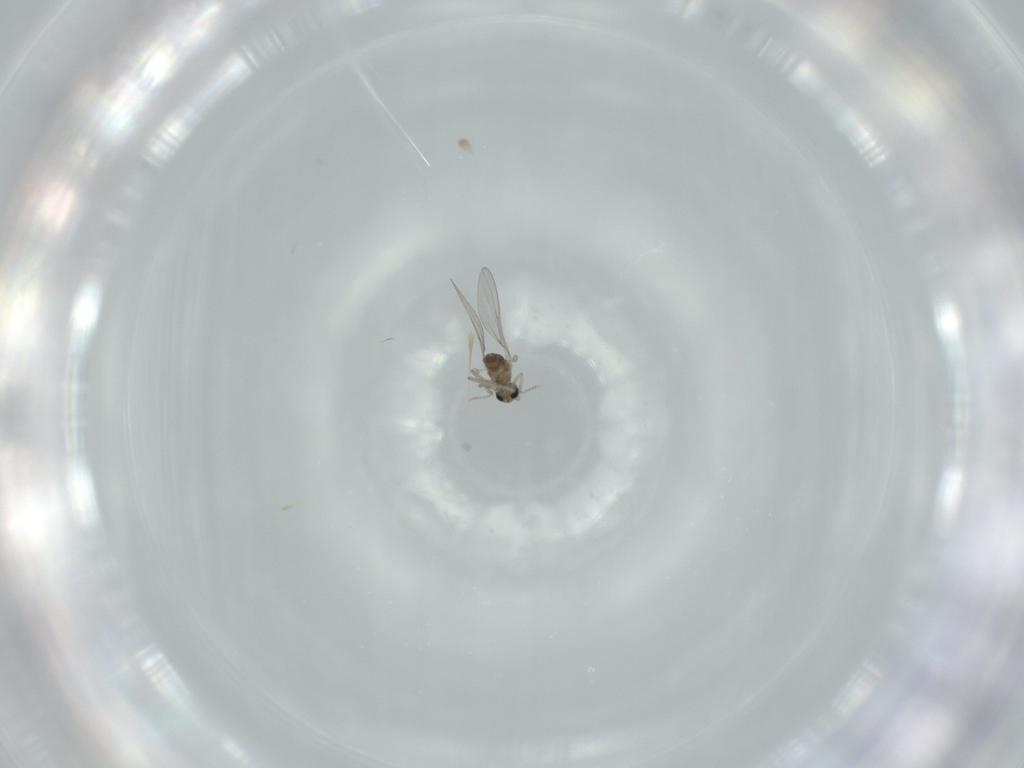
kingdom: Animalia
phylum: Arthropoda
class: Insecta
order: Diptera
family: Cecidomyiidae
